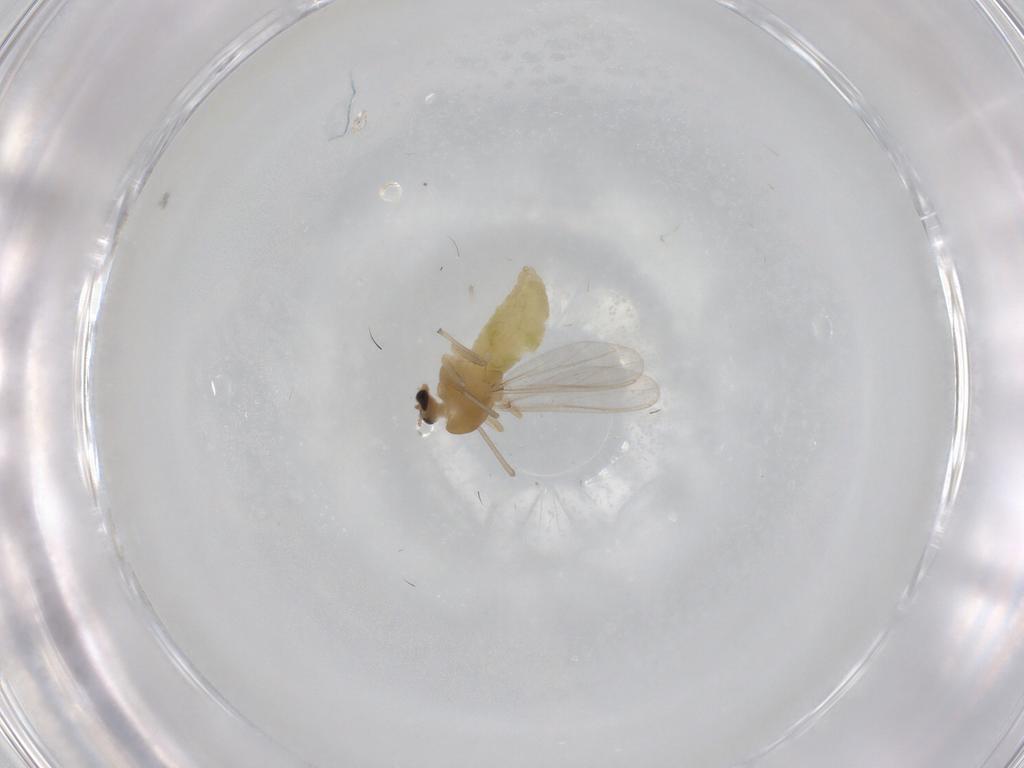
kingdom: Animalia
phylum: Arthropoda
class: Insecta
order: Diptera
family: Chironomidae
